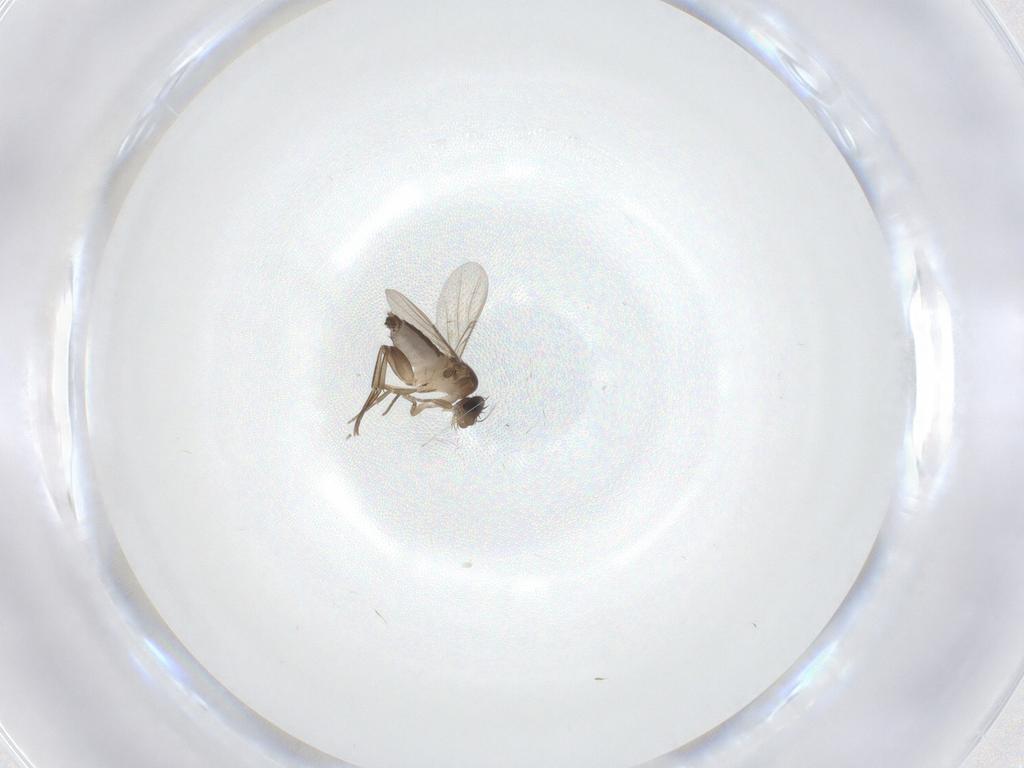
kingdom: Animalia
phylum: Arthropoda
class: Insecta
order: Diptera
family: Phoridae
